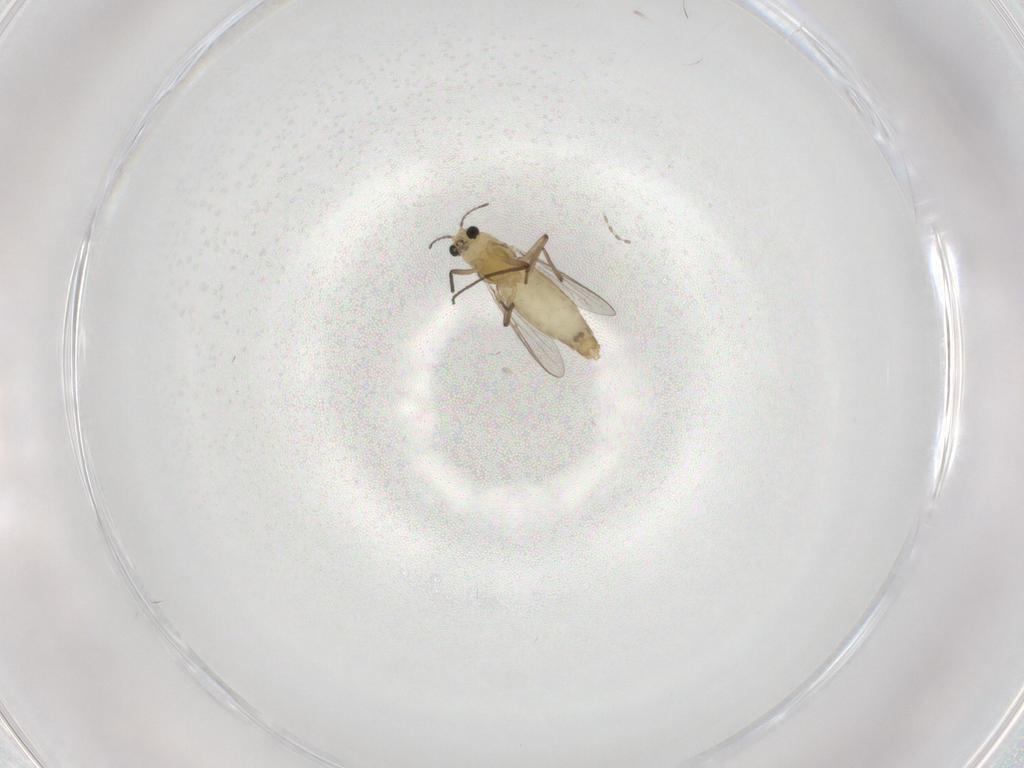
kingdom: Animalia
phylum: Arthropoda
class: Insecta
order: Diptera
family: Chironomidae
